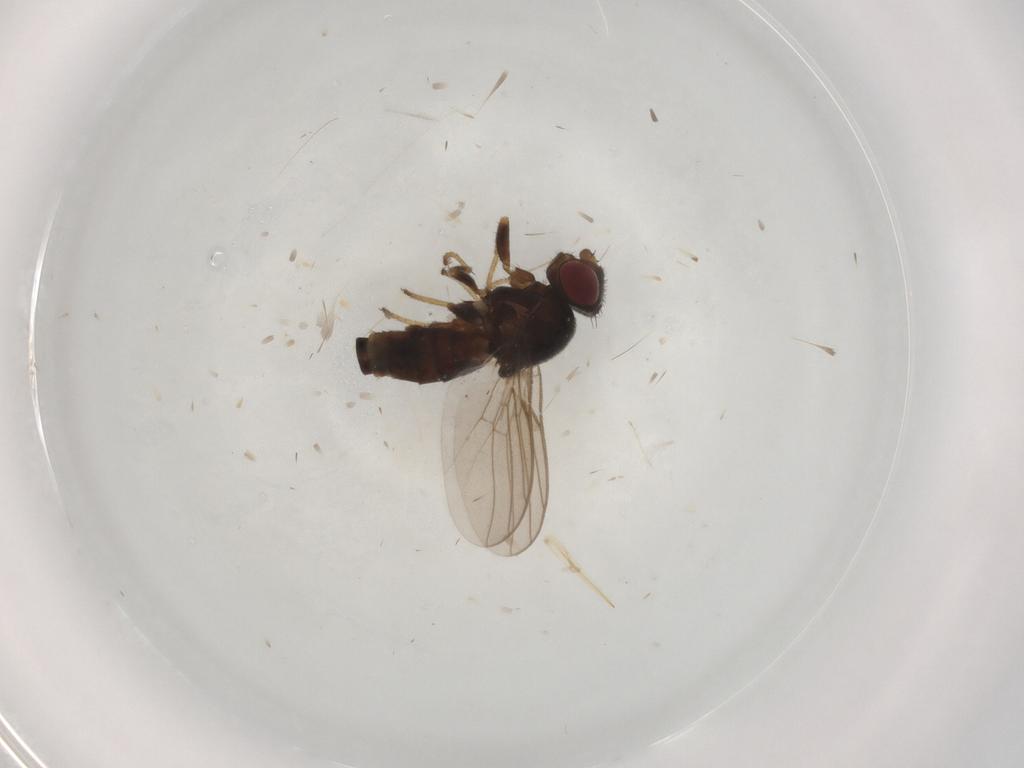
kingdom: Animalia
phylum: Arthropoda
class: Insecta
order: Diptera
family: Chloropidae
